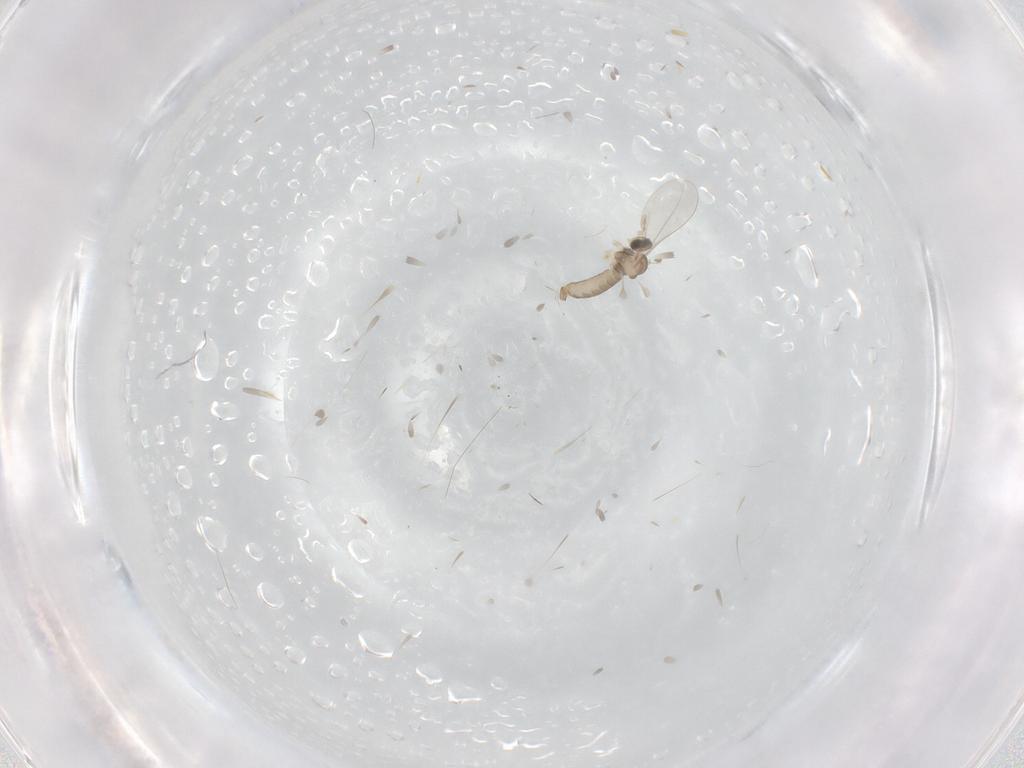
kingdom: Animalia
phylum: Arthropoda
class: Insecta
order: Diptera
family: Cecidomyiidae
